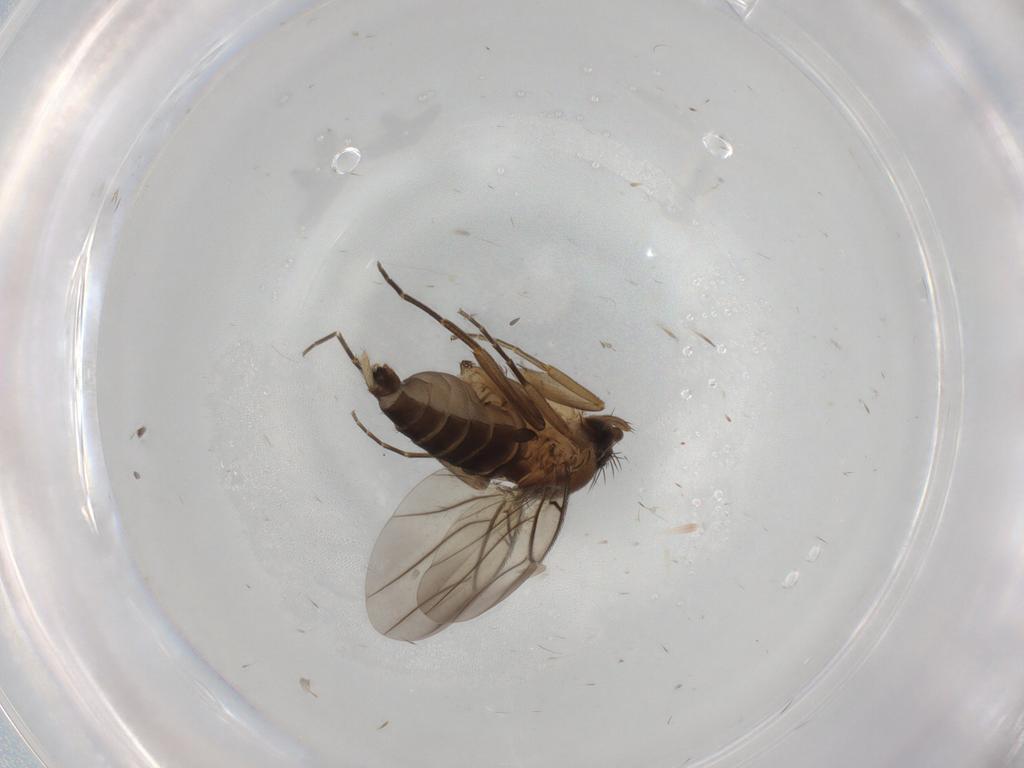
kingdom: Animalia
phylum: Arthropoda
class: Insecta
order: Diptera
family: Phoridae
